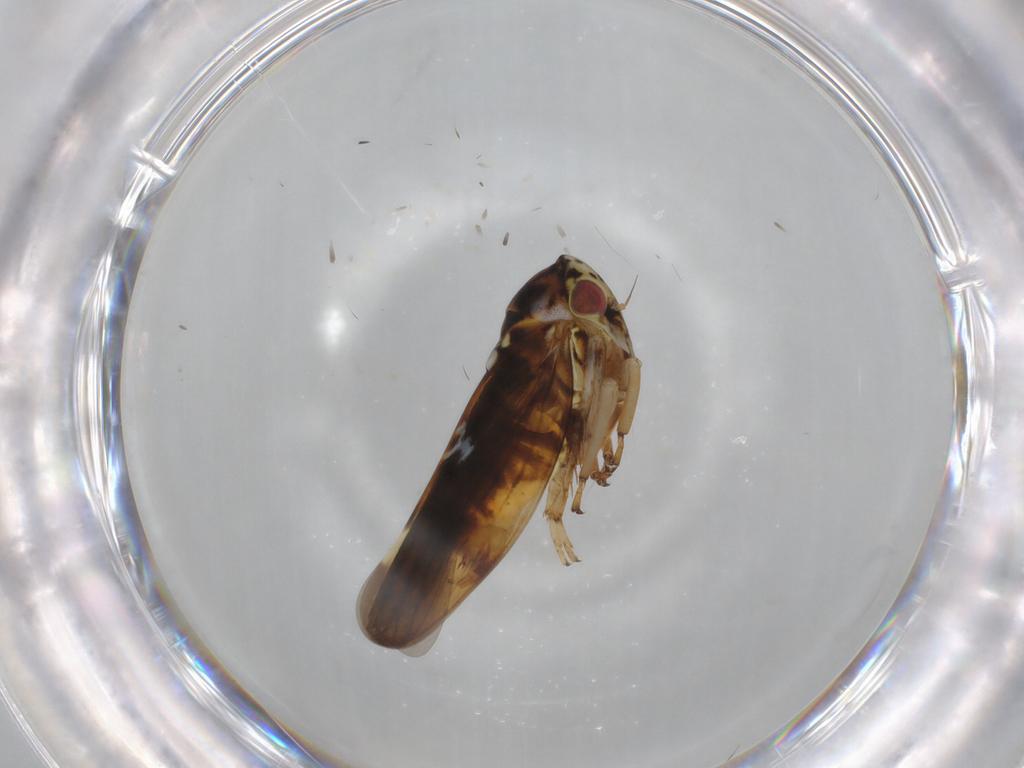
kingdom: Animalia
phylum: Arthropoda
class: Insecta
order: Hemiptera
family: Cicadellidae
